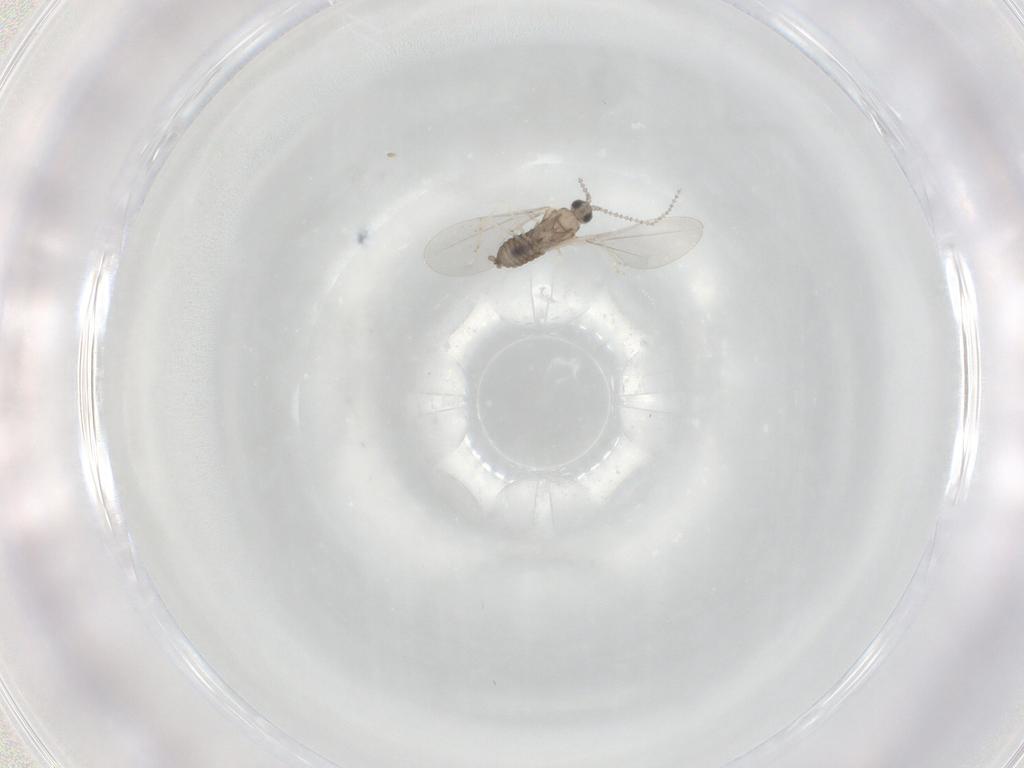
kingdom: Animalia
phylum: Arthropoda
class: Insecta
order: Diptera
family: Cecidomyiidae
